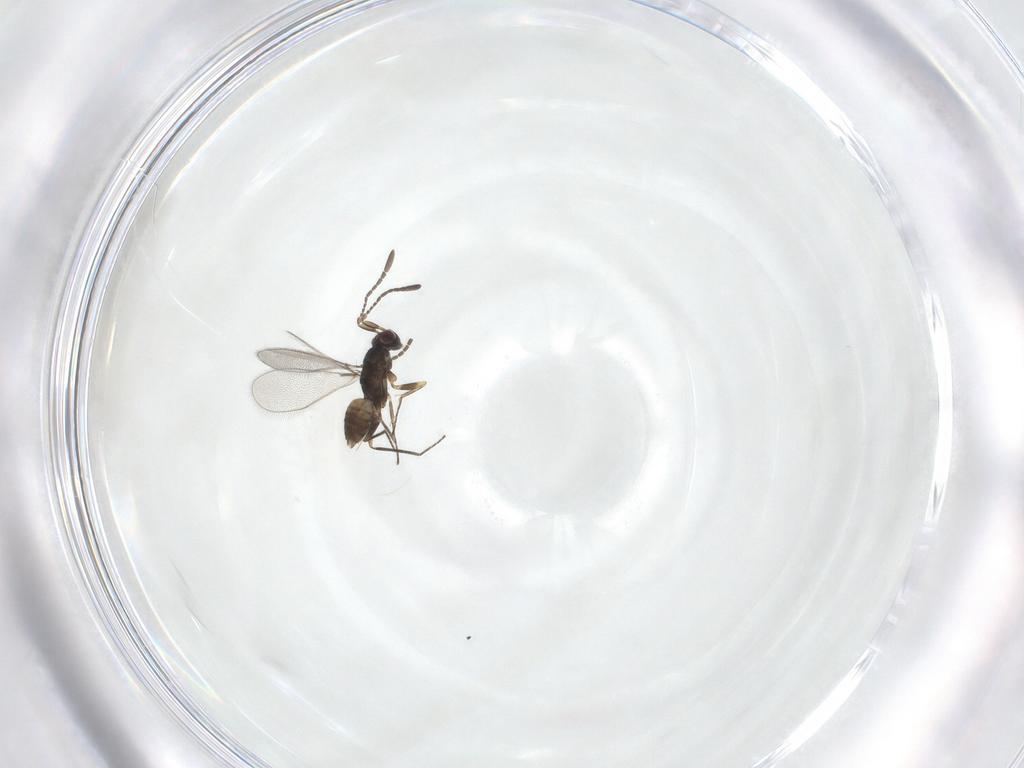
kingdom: Animalia
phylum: Arthropoda
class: Insecta
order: Hymenoptera
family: Mymaridae
